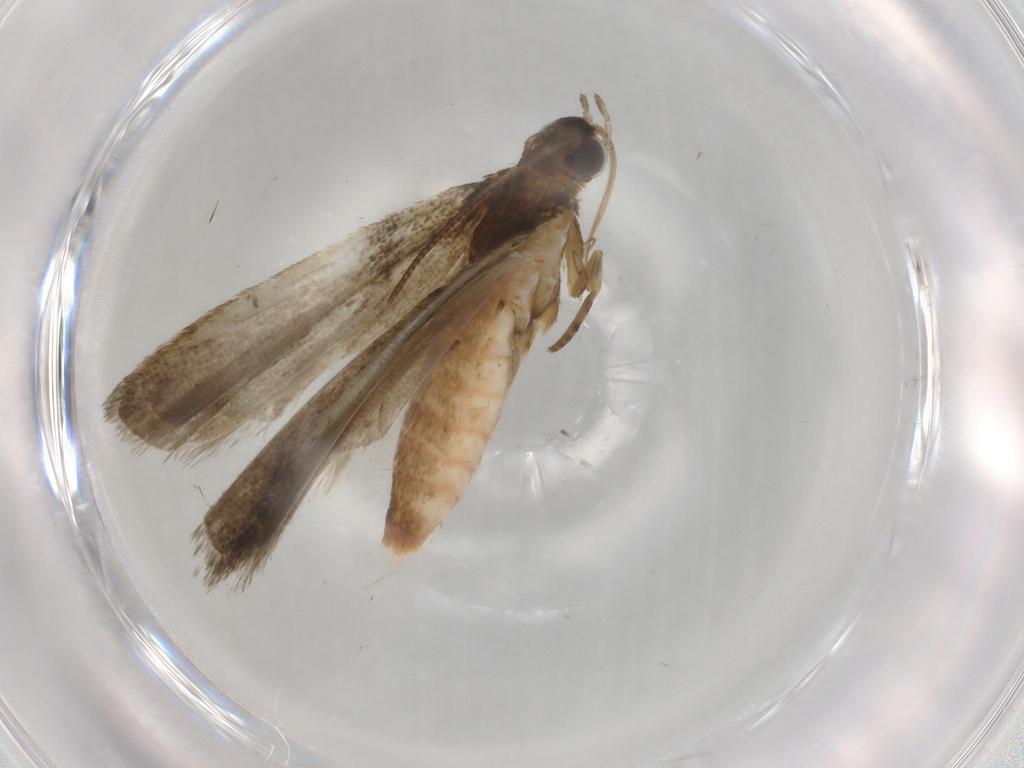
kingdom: Animalia
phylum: Arthropoda
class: Insecta
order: Lepidoptera
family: Noctuidae
